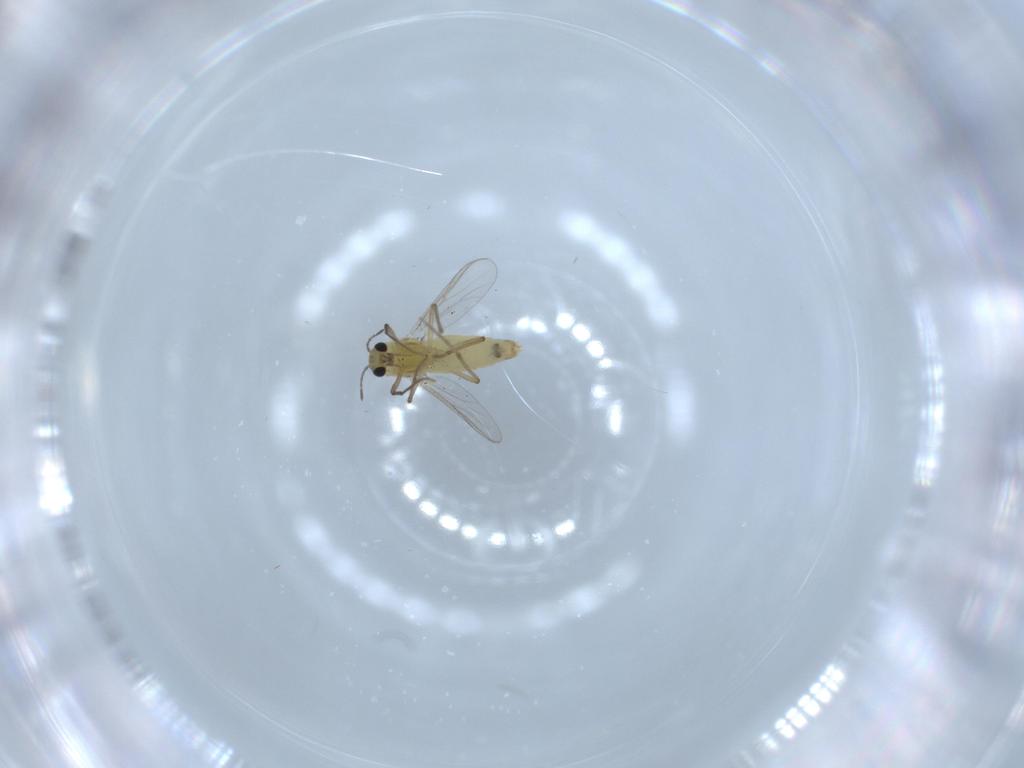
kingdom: Animalia
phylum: Arthropoda
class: Insecta
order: Diptera
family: Chironomidae
